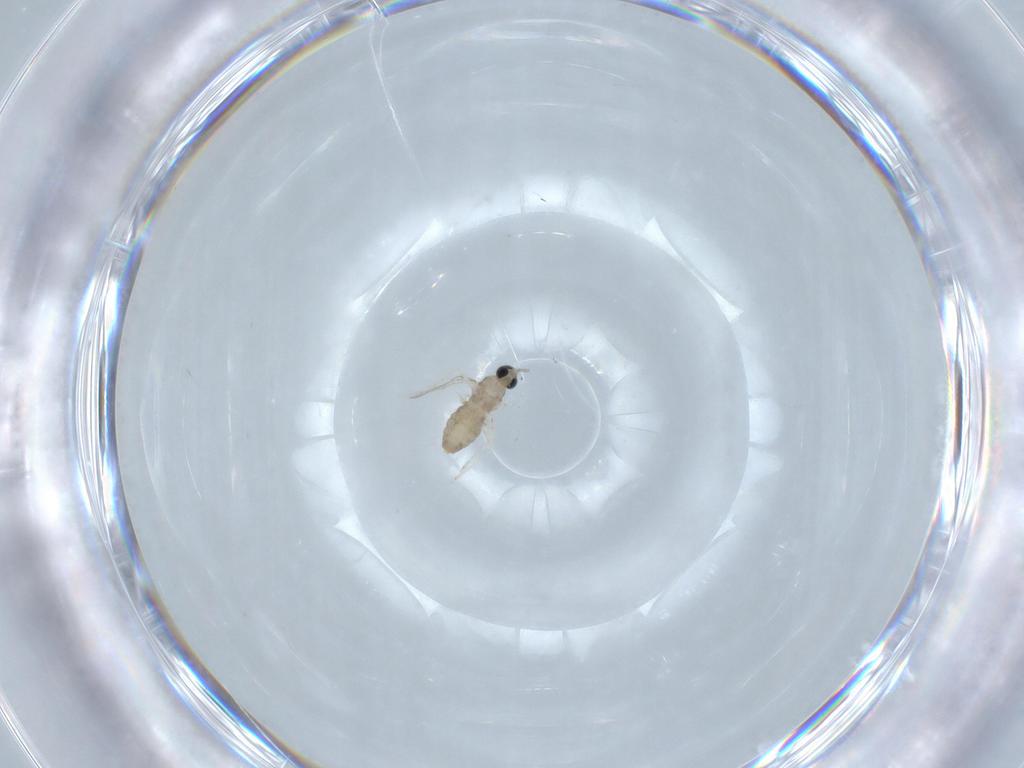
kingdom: Animalia
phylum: Arthropoda
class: Insecta
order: Diptera
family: Cecidomyiidae
